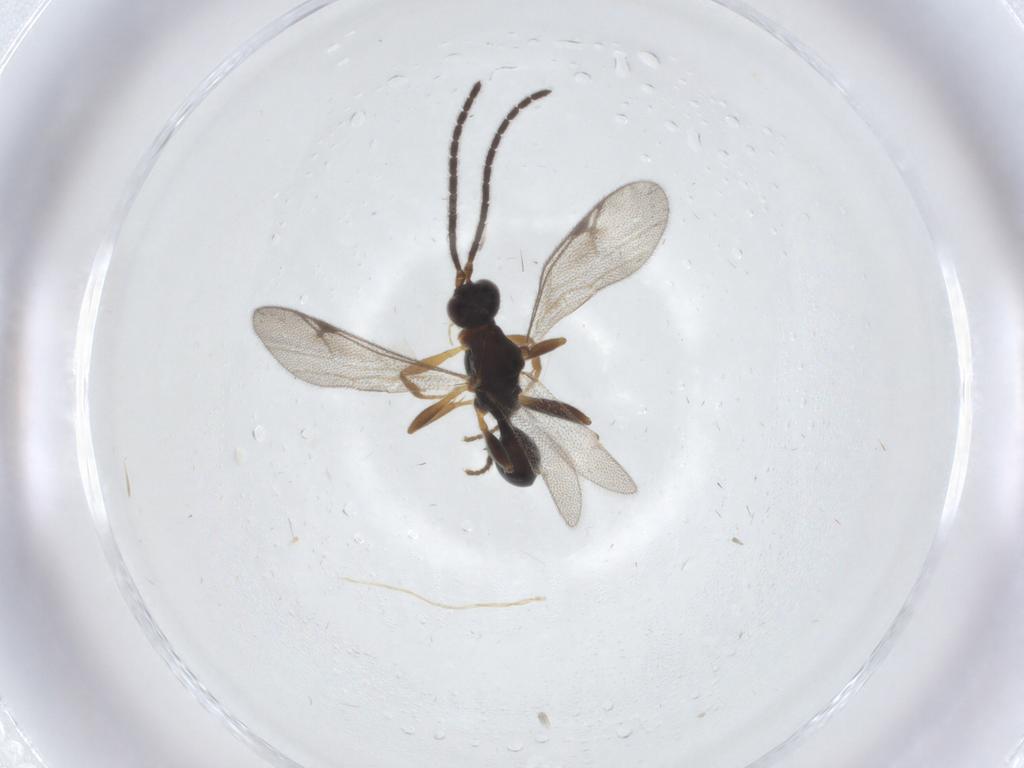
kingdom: Animalia
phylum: Arthropoda
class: Insecta
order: Hymenoptera
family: Proctotrupidae
